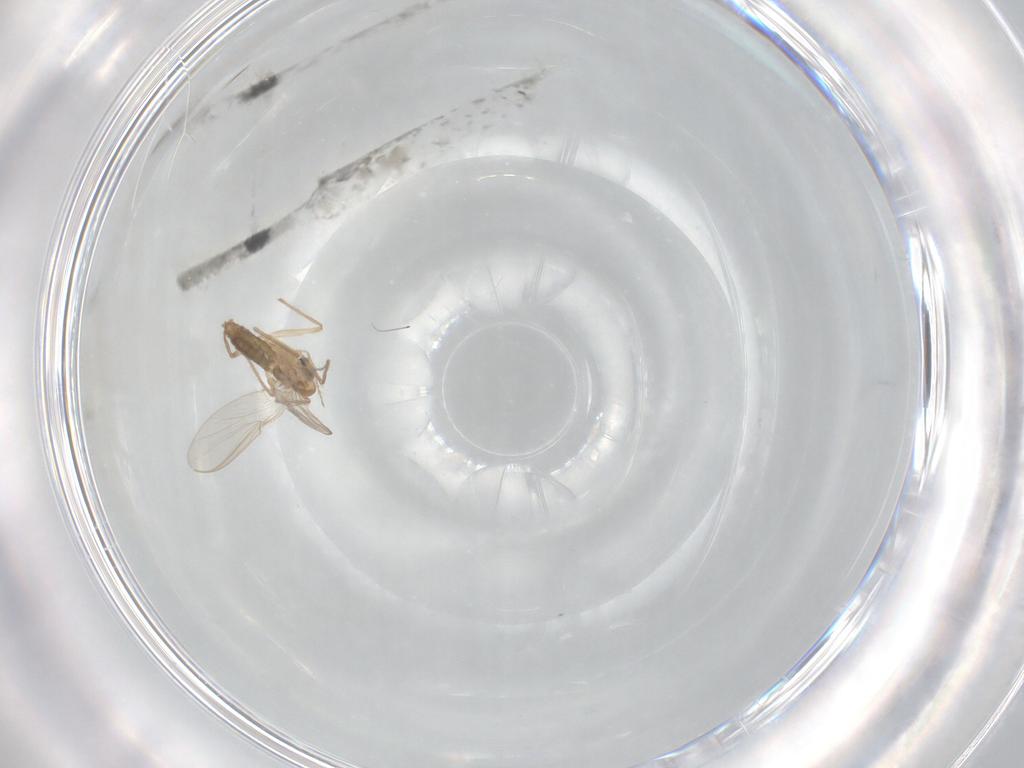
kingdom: Animalia
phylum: Arthropoda
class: Insecta
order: Diptera
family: Chironomidae
